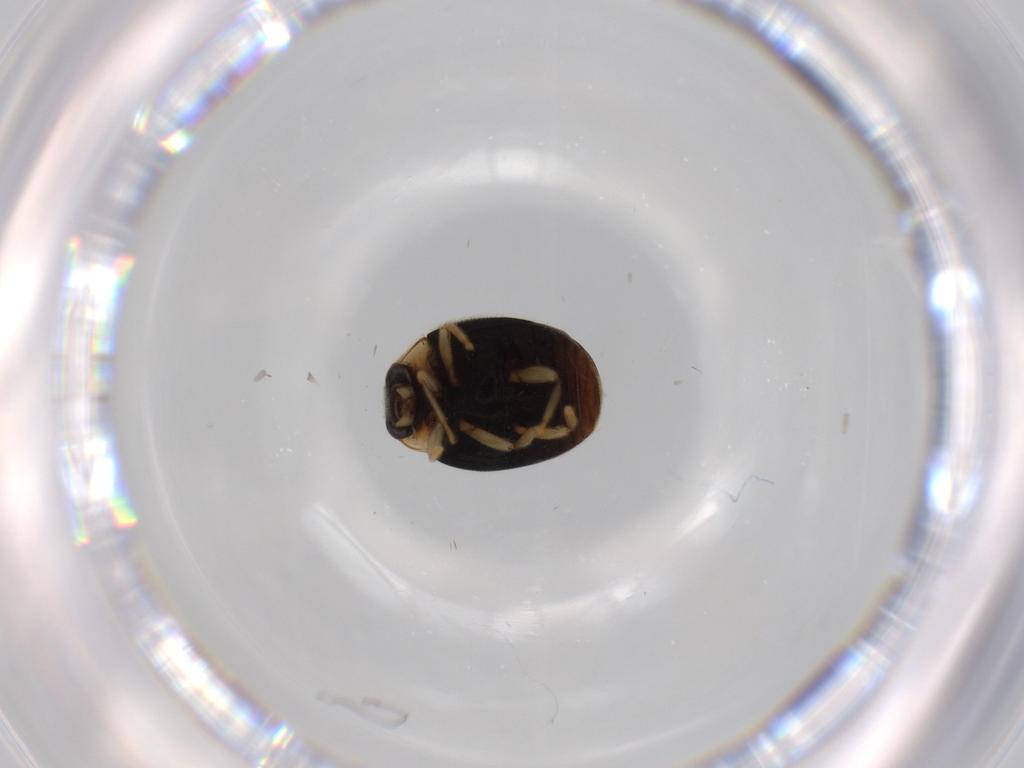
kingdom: Animalia
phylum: Arthropoda
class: Insecta
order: Coleoptera
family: Coccinellidae
